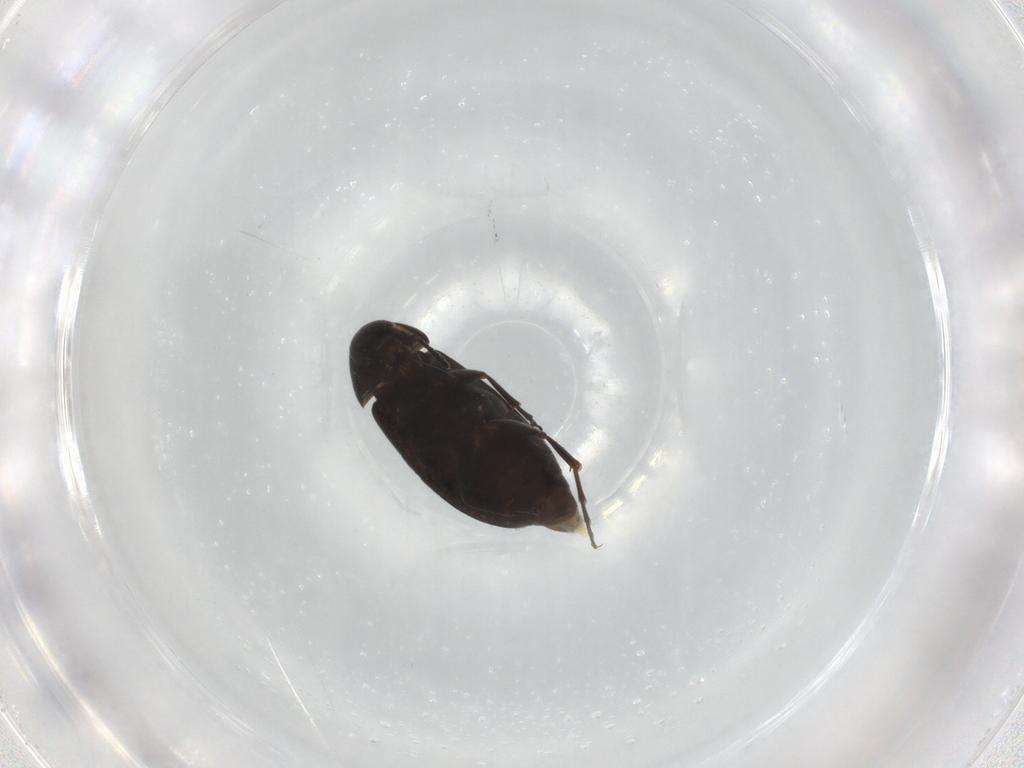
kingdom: Animalia
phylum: Arthropoda
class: Insecta
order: Coleoptera
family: Scraptiidae
